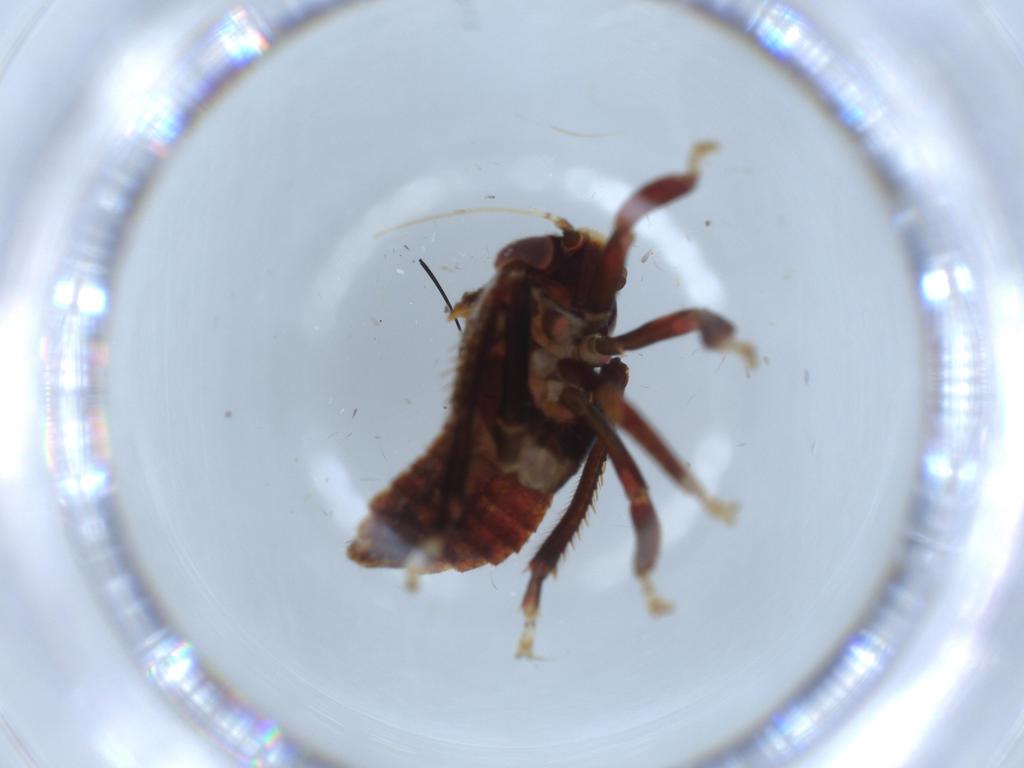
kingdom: Animalia
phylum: Arthropoda
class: Insecta
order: Hemiptera
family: Cicadellidae
